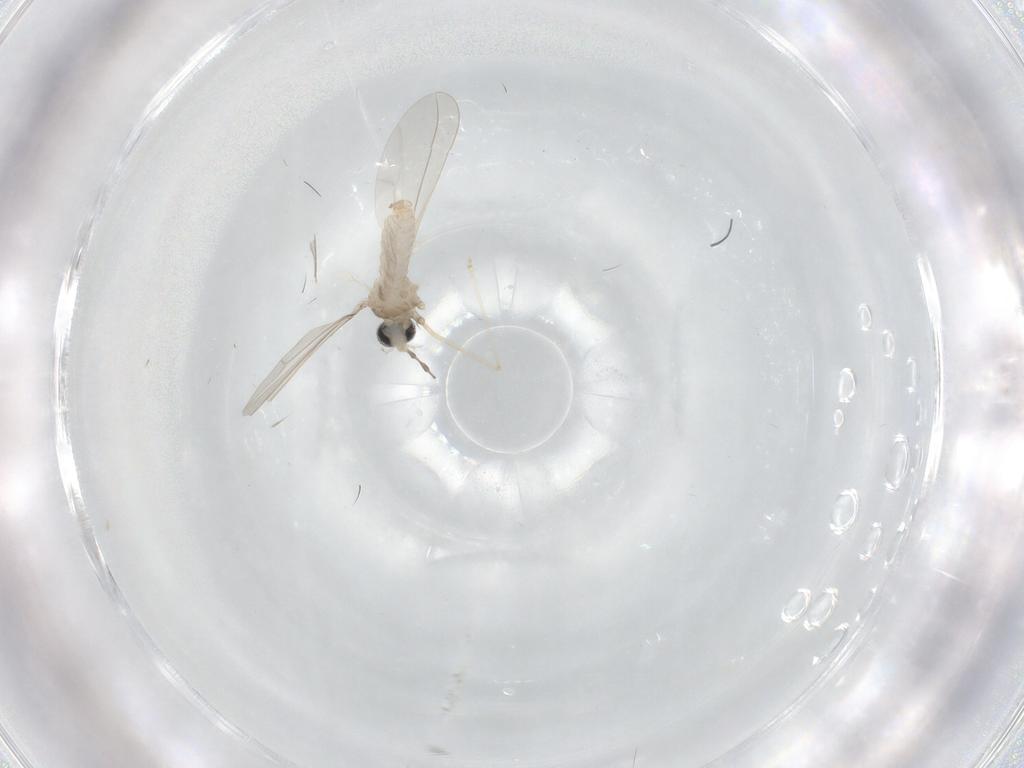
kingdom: Animalia
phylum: Arthropoda
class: Insecta
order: Diptera
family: Cecidomyiidae
